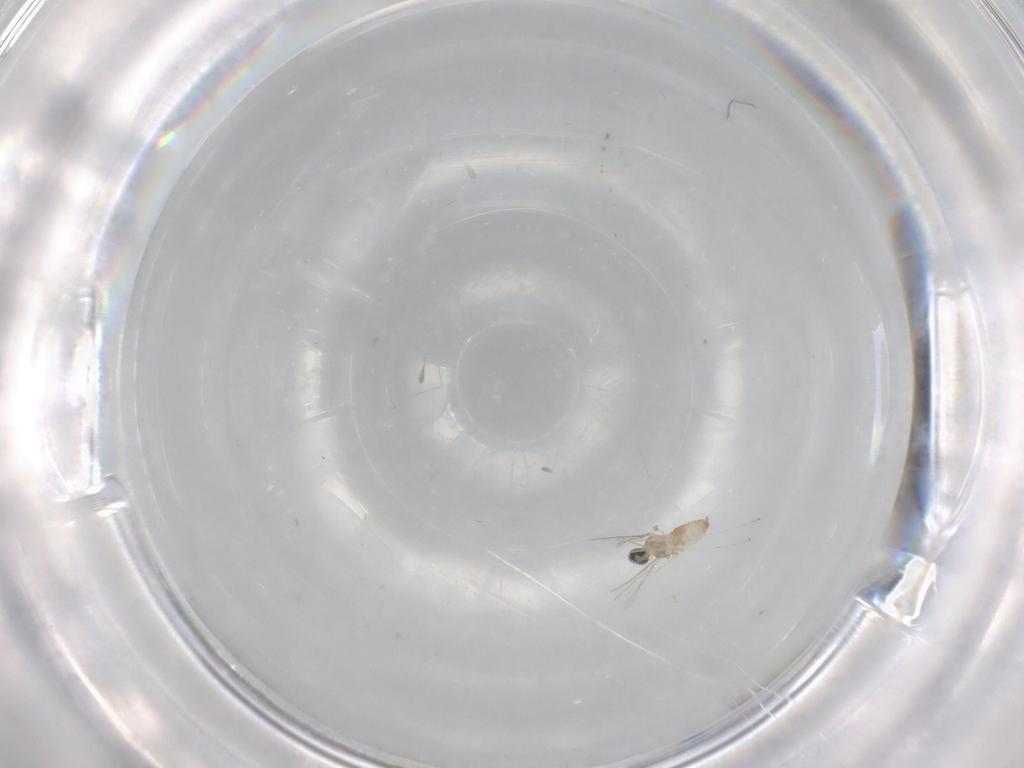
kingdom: Animalia
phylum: Arthropoda
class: Insecta
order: Diptera
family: Cecidomyiidae
